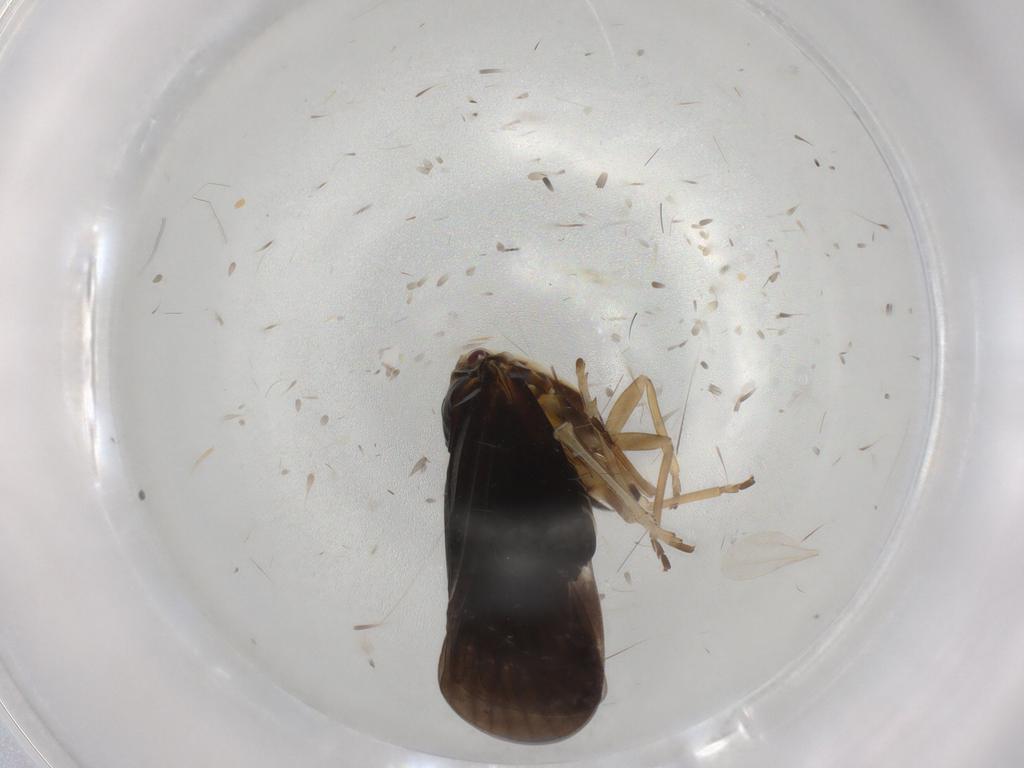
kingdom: Animalia
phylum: Arthropoda
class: Insecta
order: Hemiptera
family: Derbidae
